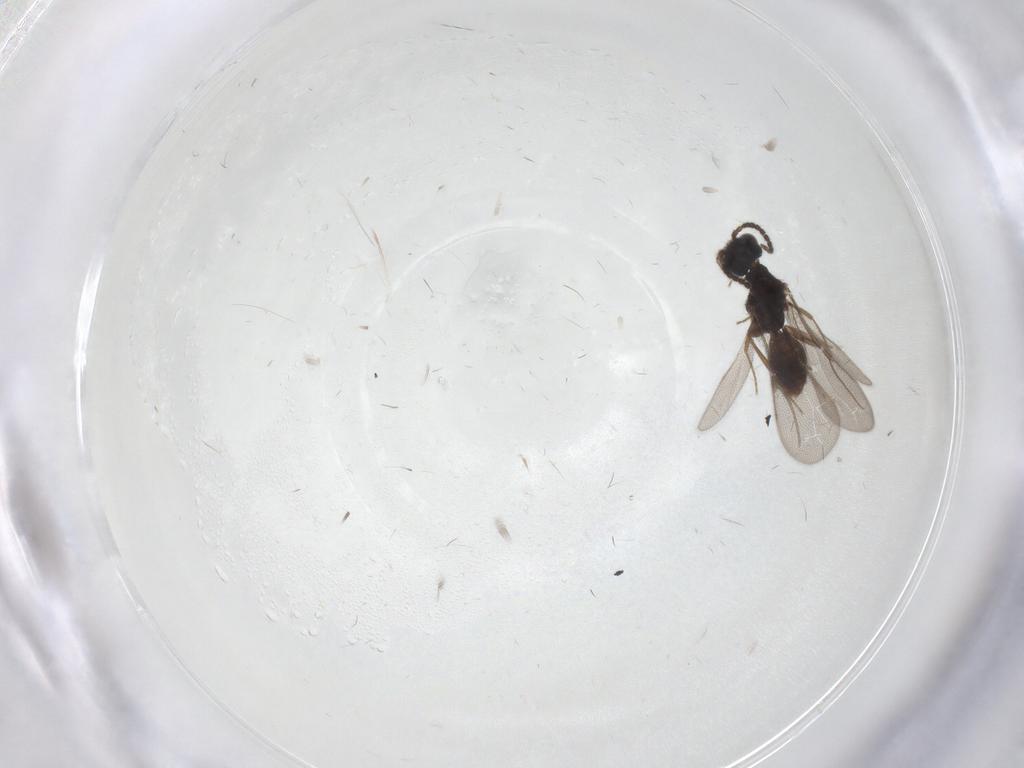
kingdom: Animalia
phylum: Arthropoda
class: Insecta
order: Hymenoptera
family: Bethylidae
